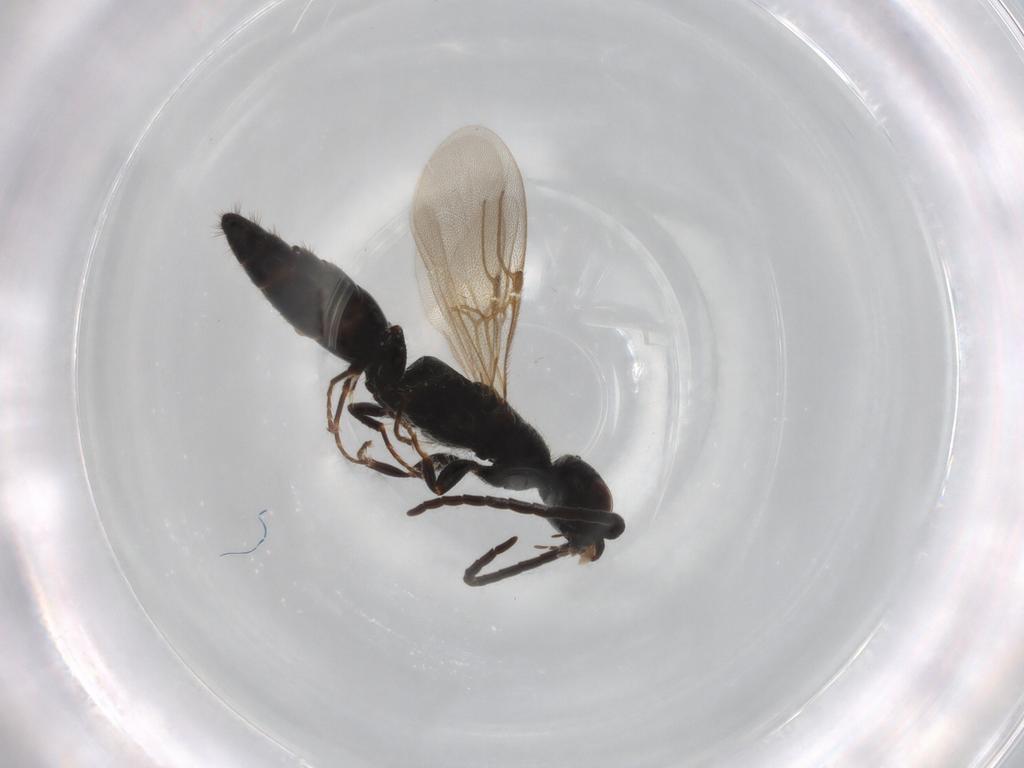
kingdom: Animalia
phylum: Arthropoda
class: Insecta
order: Hymenoptera
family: Bethylidae
